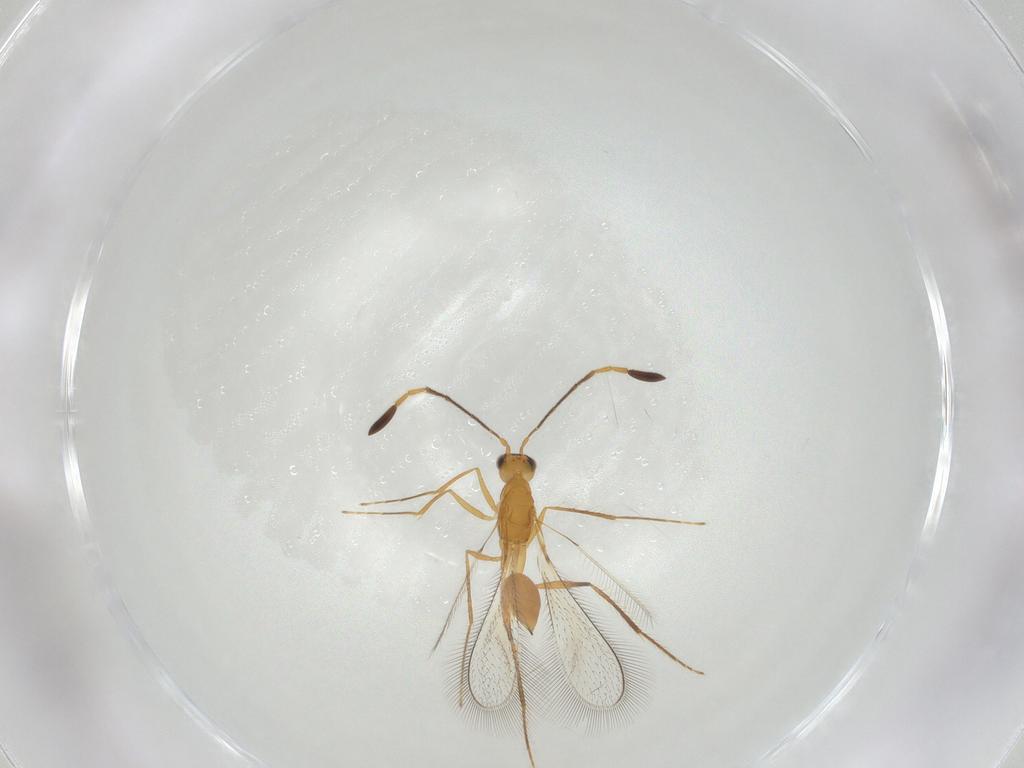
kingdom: Animalia
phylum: Arthropoda
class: Insecta
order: Hymenoptera
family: Mymaridae
